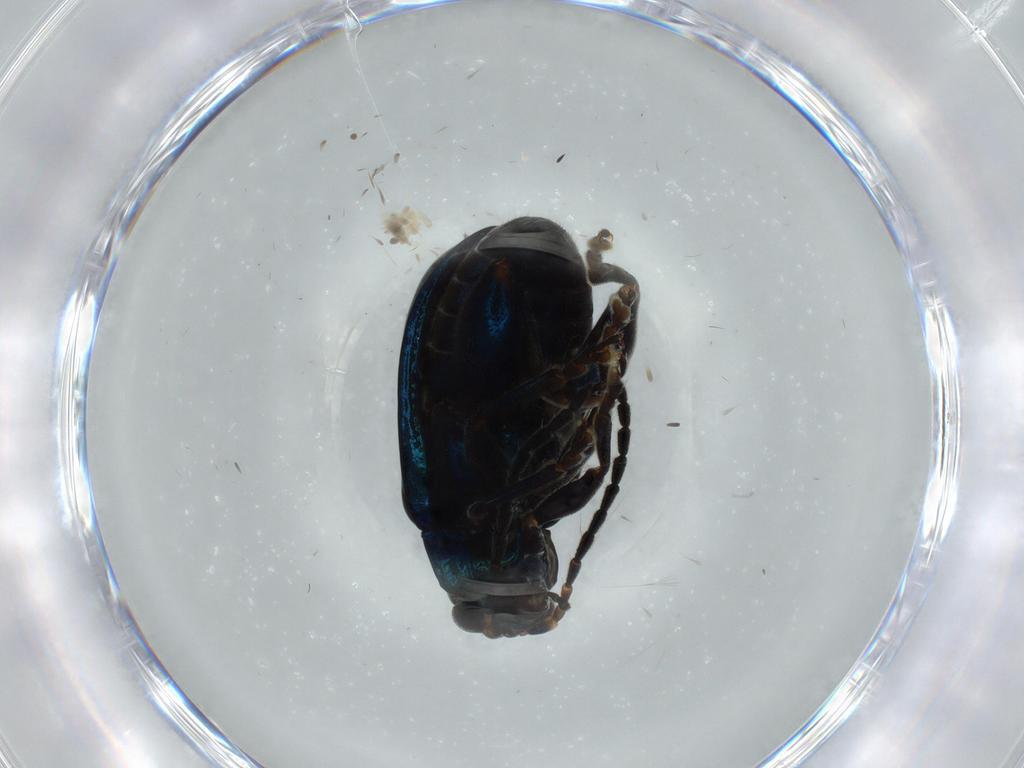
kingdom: Animalia
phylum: Arthropoda
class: Insecta
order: Coleoptera
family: Chrysomelidae
